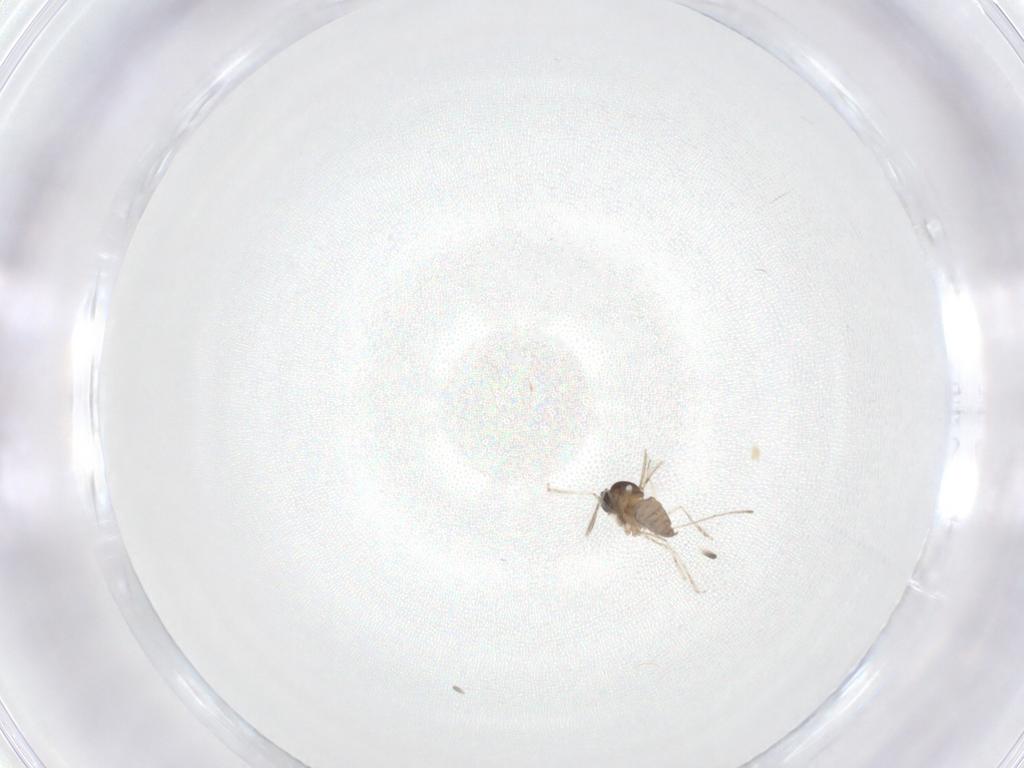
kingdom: Animalia
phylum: Arthropoda
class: Insecta
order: Diptera
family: Cecidomyiidae
